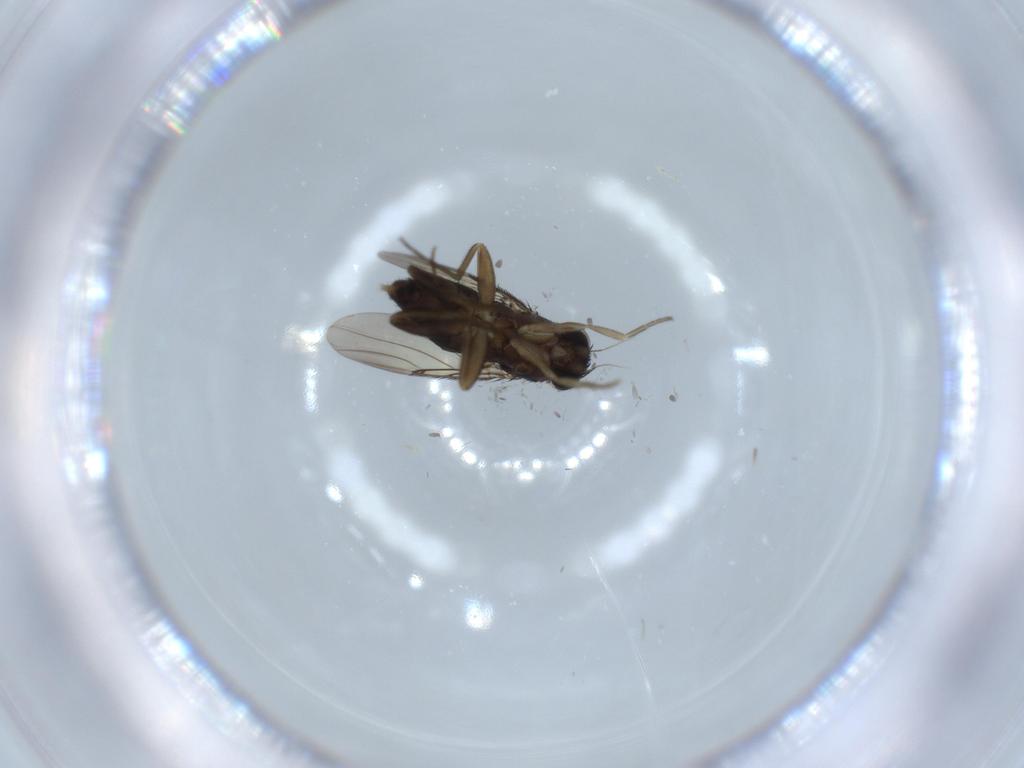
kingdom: Animalia
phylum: Arthropoda
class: Insecta
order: Diptera
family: Phoridae
